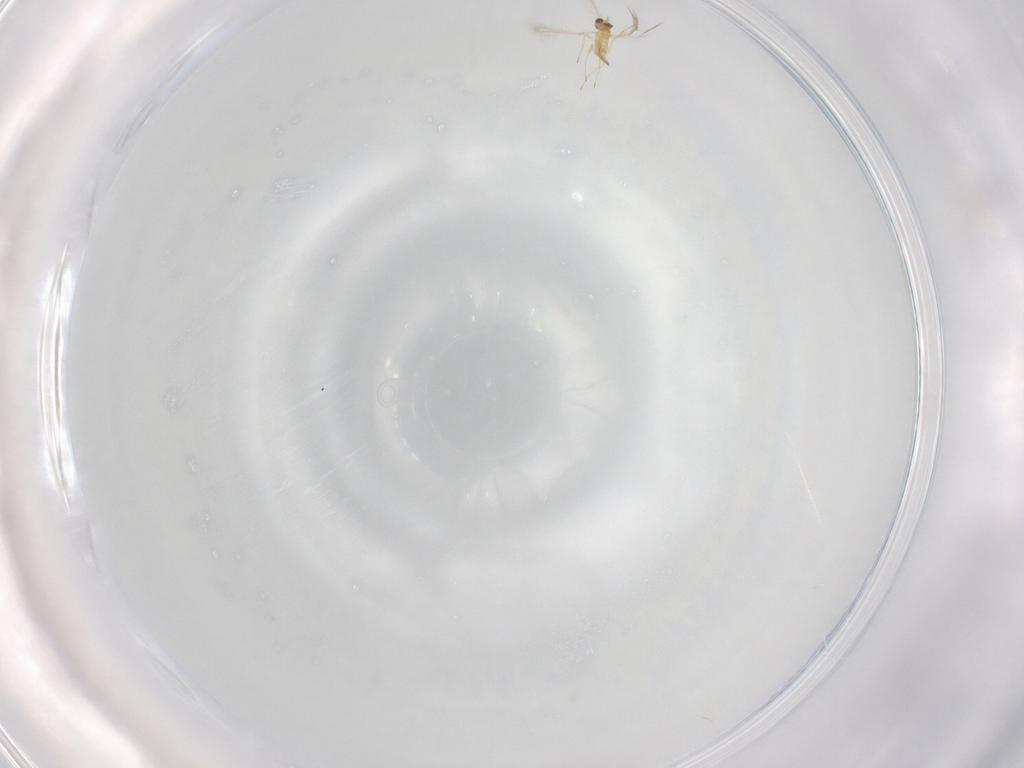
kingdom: Animalia
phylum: Arthropoda
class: Insecta
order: Hymenoptera
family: Mymaridae
